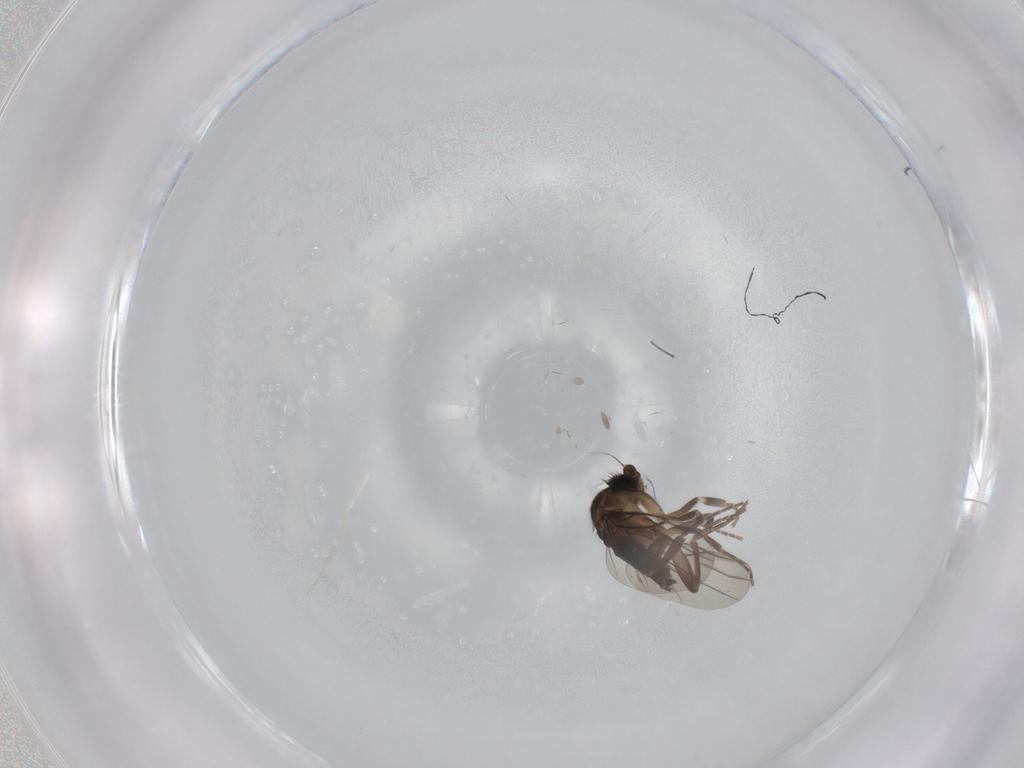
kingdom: Animalia
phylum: Arthropoda
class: Insecta
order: Diptera
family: Phoridae
